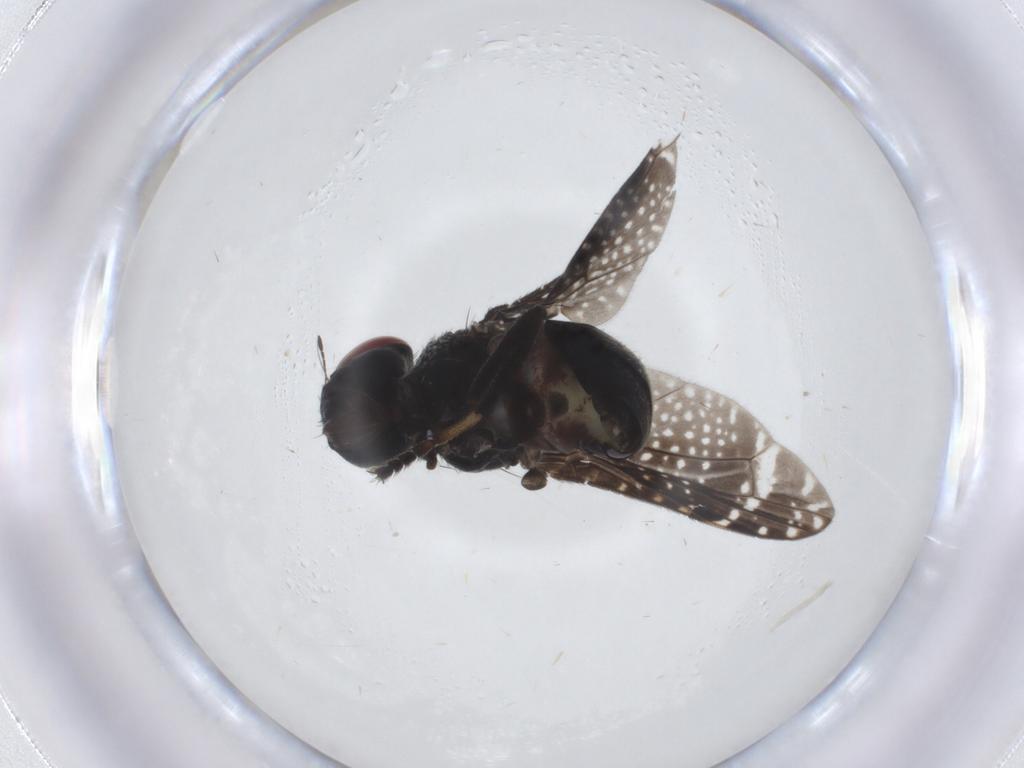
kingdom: Animalia
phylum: Arthropoda
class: Insecta
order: Diptera
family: Platystomatidae
